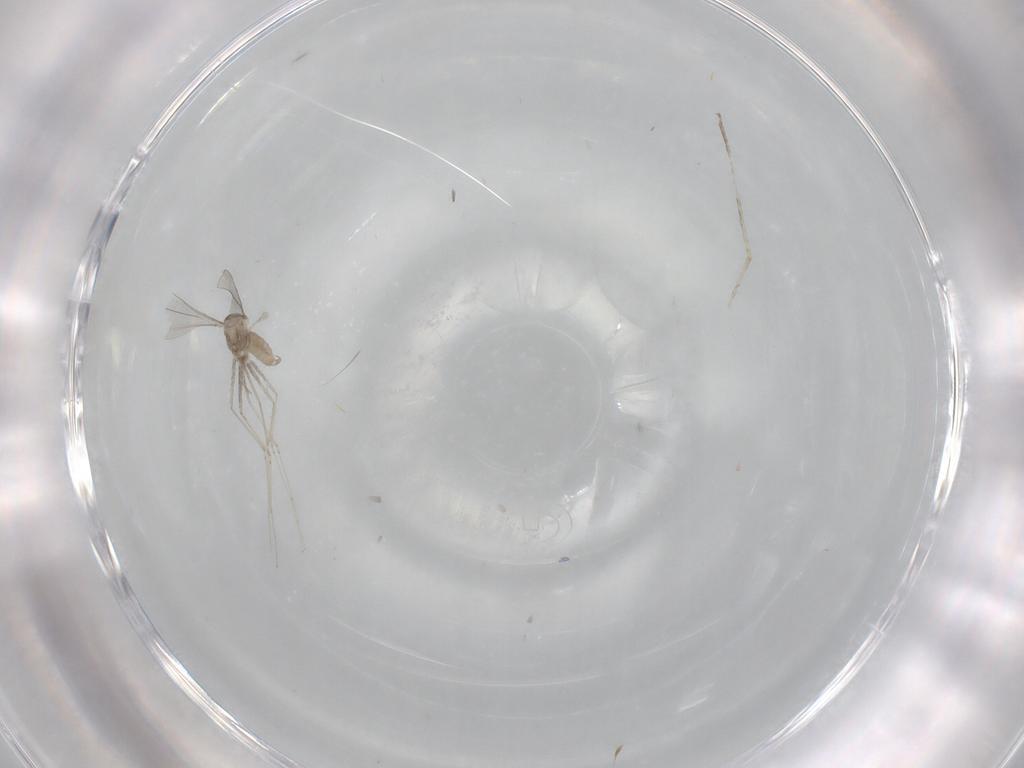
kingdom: Animalia
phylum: Arthropoda
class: Insecta
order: Diptera
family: Cecidomyiidae
